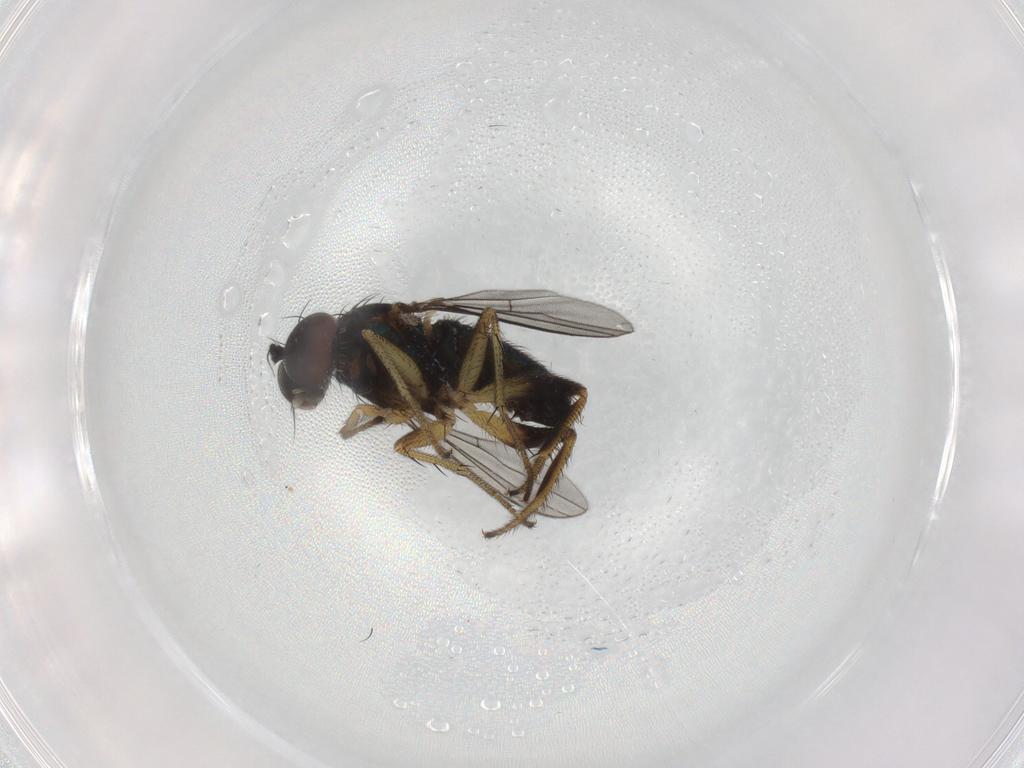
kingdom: Animalia
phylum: Arthropoda
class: Insecta
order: Diptera
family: Dolichopodidae
